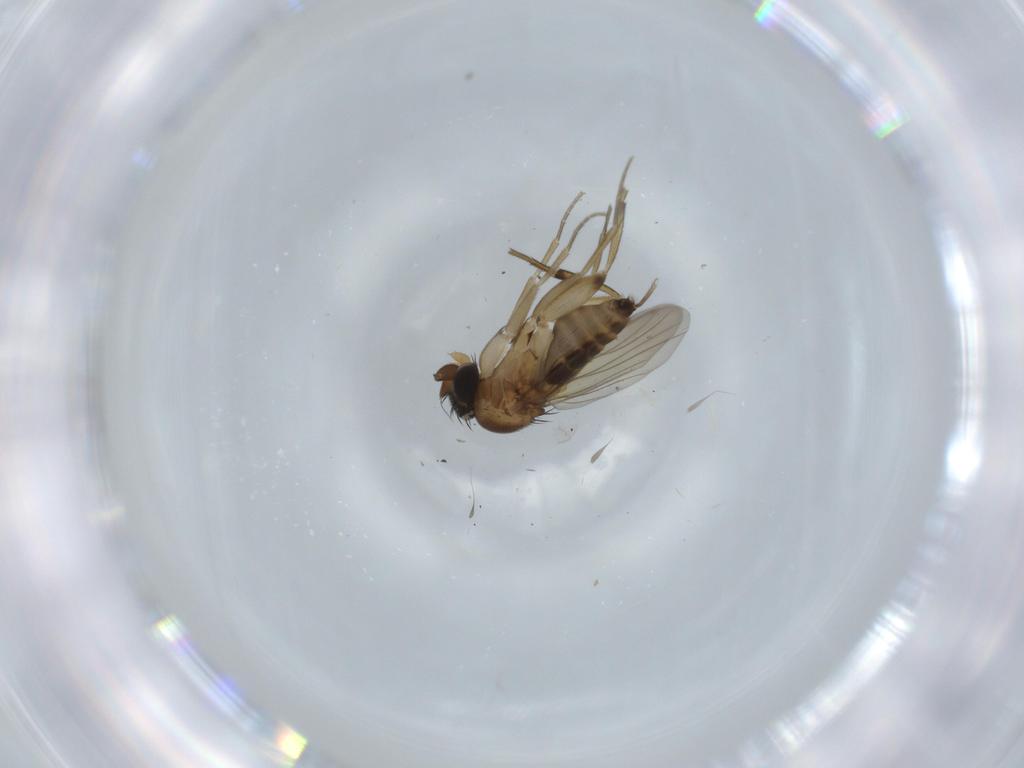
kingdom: Animalia
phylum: Arthropoda
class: Insecta
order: Diptera
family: Phoridae
